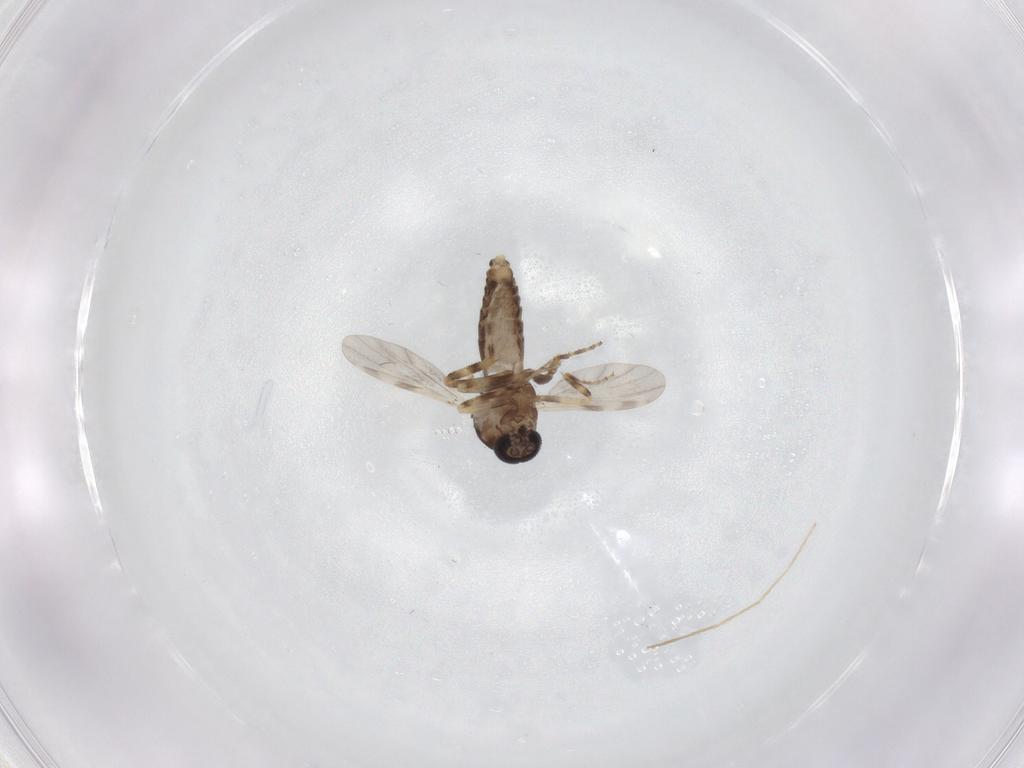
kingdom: Animalia
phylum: Arthropoda
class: Insecta
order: Diptera
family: Ceratopogonidae
